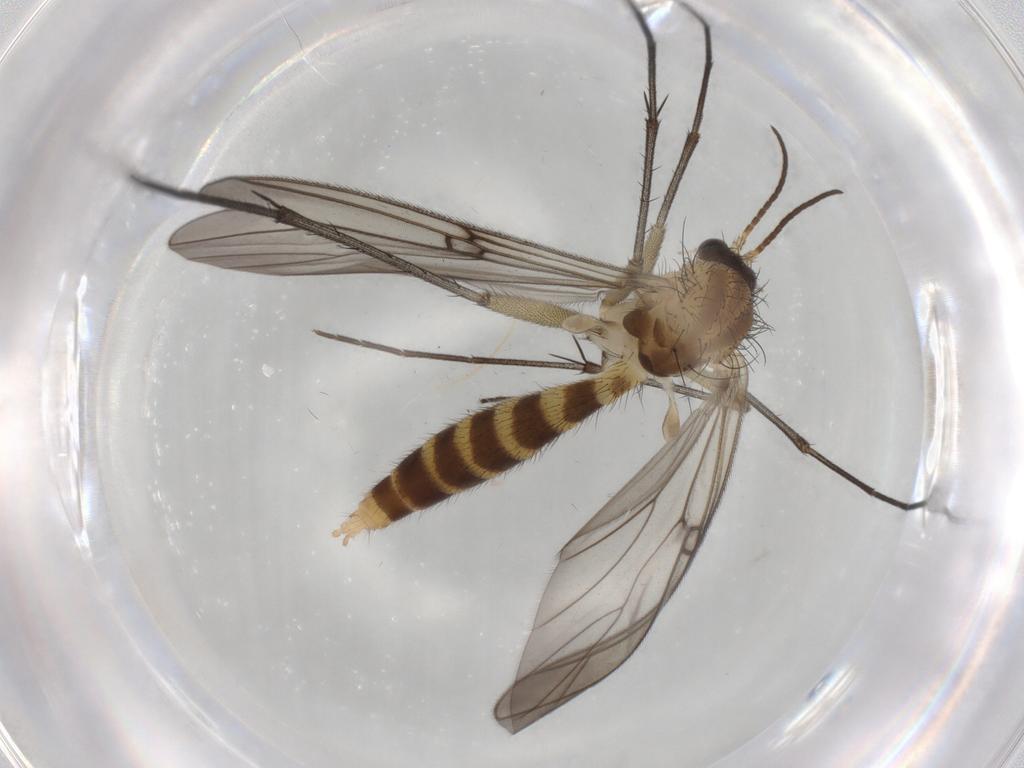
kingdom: Animalia
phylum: Arthropoda
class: Insecta
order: Diptera
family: Mycetophilidae
